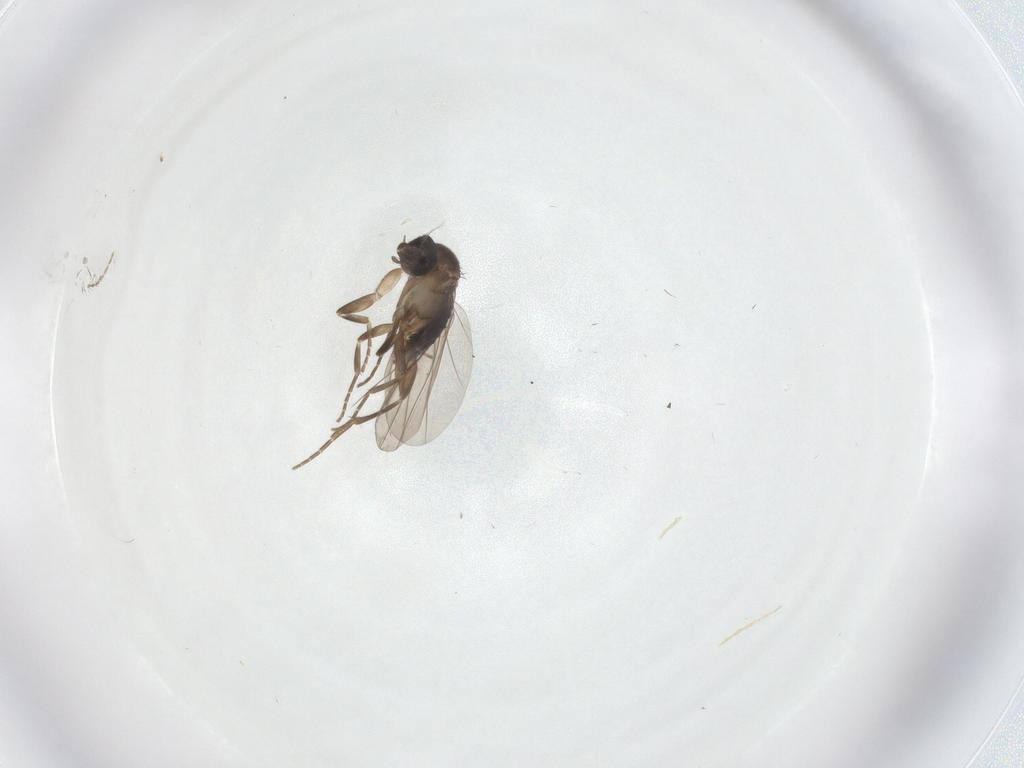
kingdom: Animalia
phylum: Arthropoda
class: Insecta
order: Diptera
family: Ceratopogonidae
